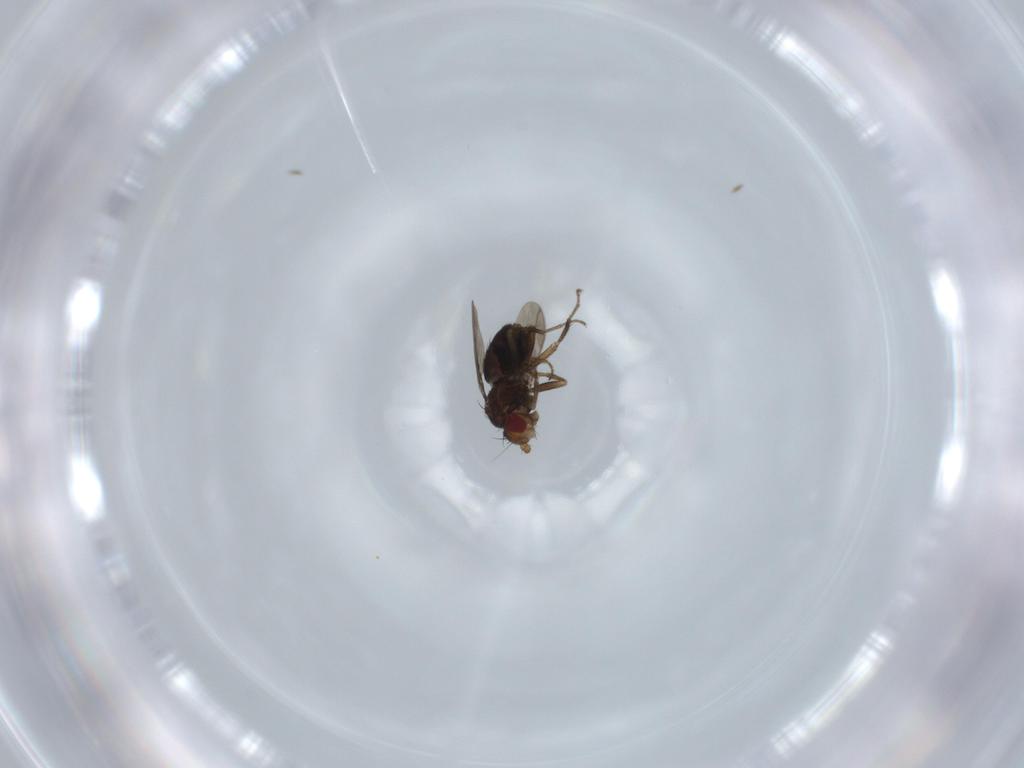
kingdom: Animalia
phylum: Arthropoda
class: Insecta
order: Diptera
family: Sphaeroceridae
